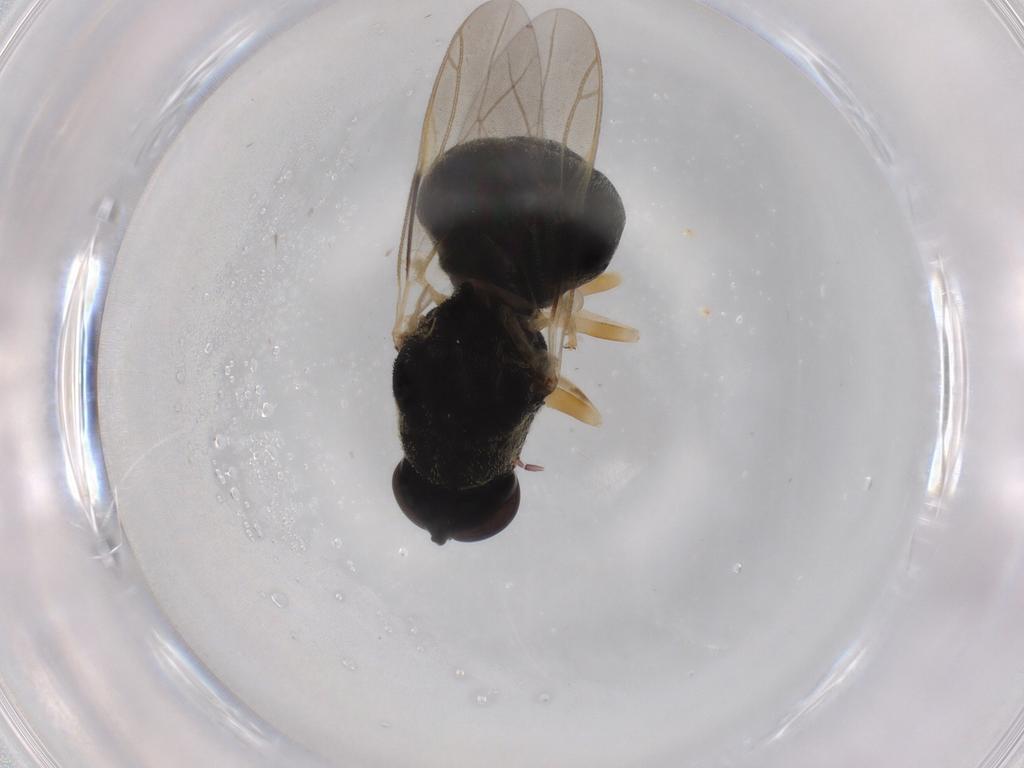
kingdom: Animalia
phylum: Arthropoda
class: Insecta
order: Diptera
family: Stratiomyidae
